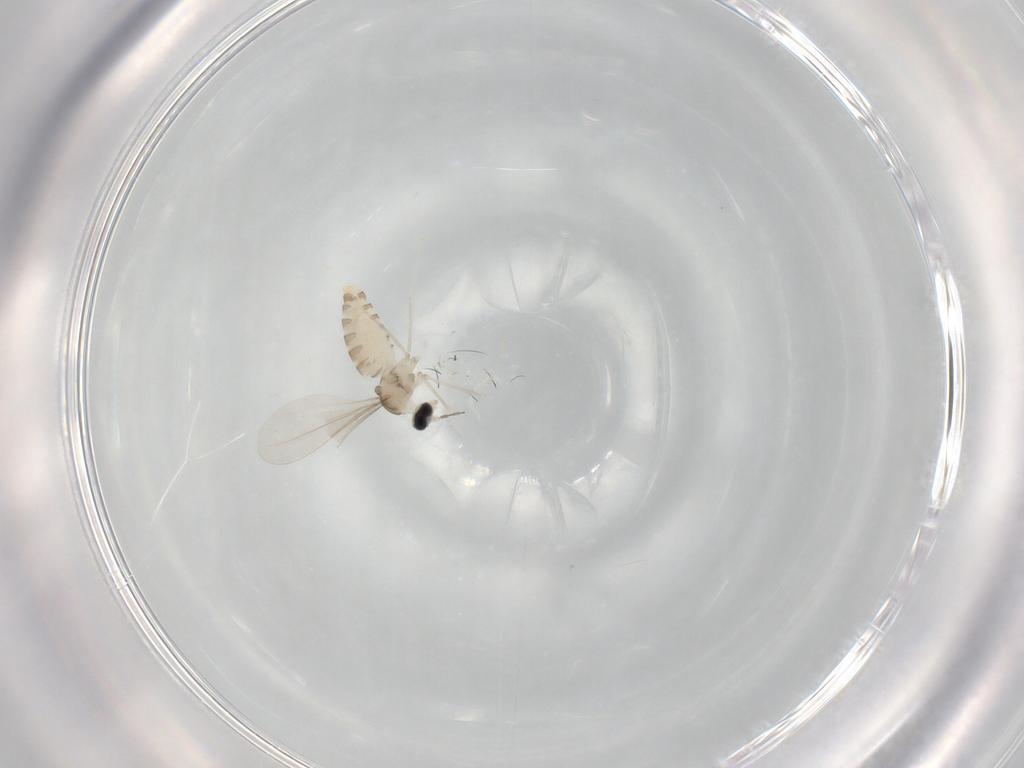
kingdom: Animalia
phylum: Arthropoda
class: Insecta
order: Diptera
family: Cecidomyiidae
